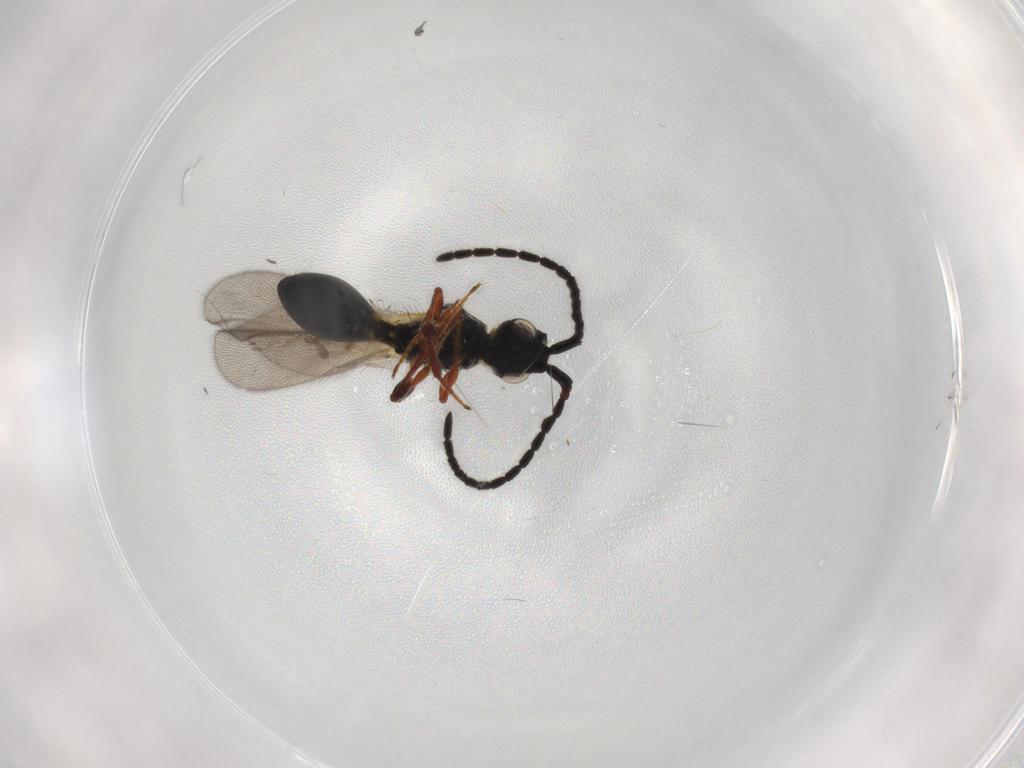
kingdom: Animalia
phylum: Arthropoda
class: Insecta
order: Hymenoptera
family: Diapriidae
